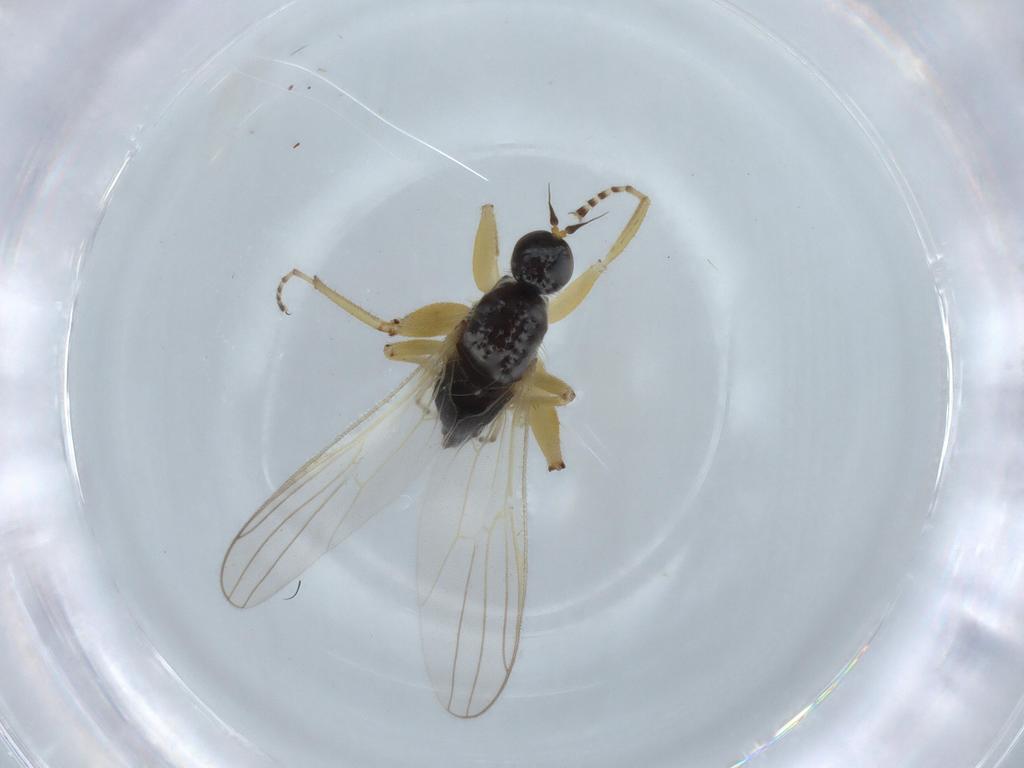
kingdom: Animalia
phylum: Arthropoda
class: Insecta
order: Diptera
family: Hybotidae
